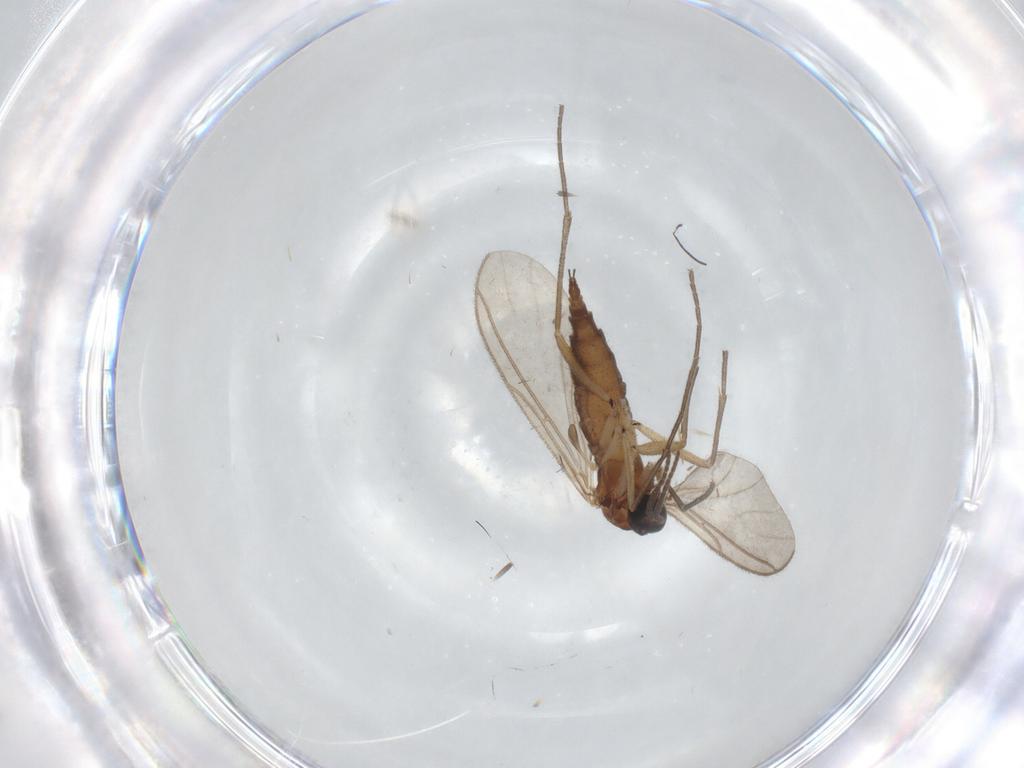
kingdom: Animalia
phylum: Arthropoda
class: Insecta
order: Diptera
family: Sciaridae
